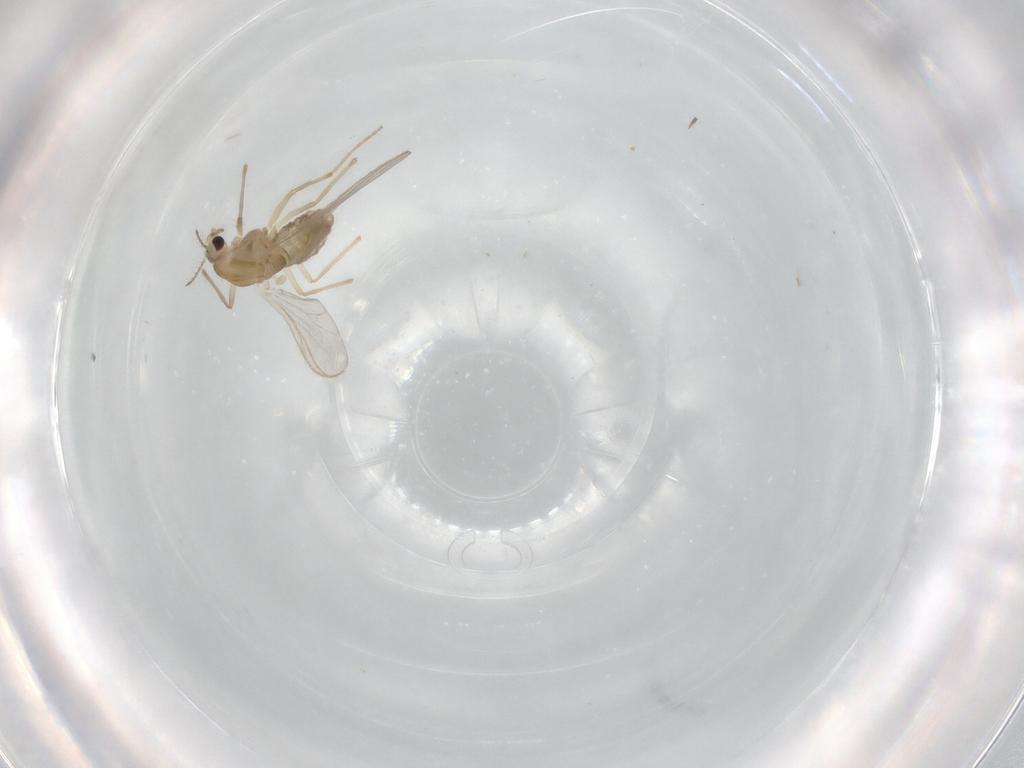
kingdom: Animalia
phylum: Arthropoda
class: Insecta
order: Diptera
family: Chironomidae
